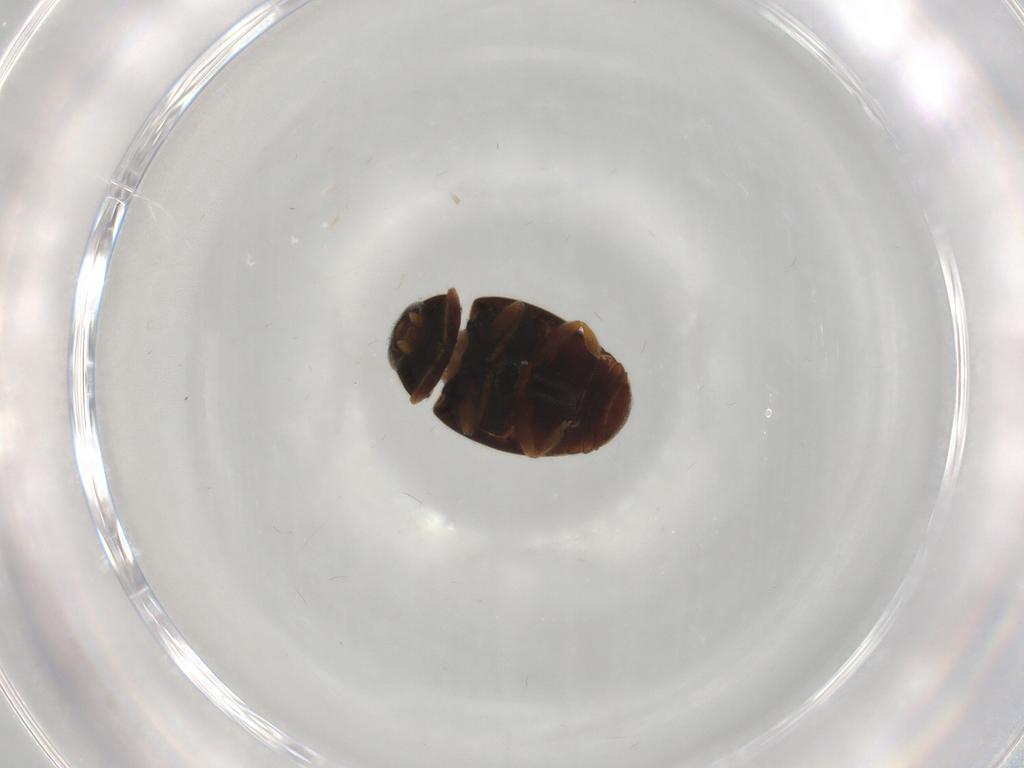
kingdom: Animalia
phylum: Arthropoda
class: Insecta
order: Coleoptera
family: Coccinellidae
